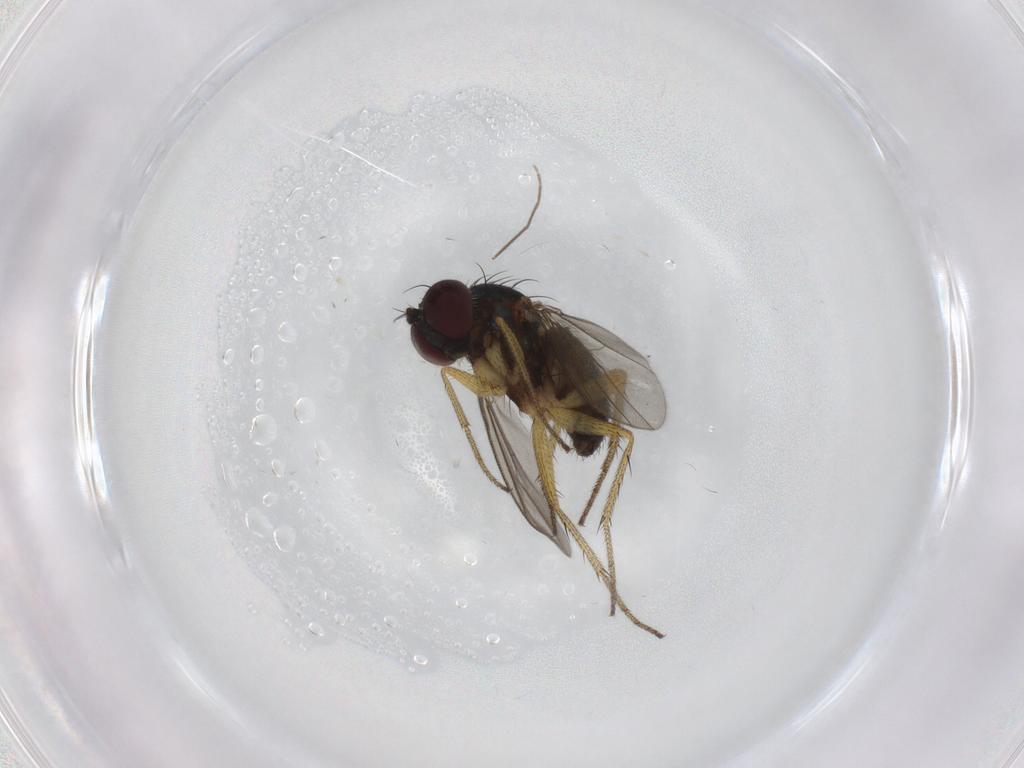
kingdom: Animalia
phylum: Arthropoda
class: Insecta
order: Diptera
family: Dolichopodidae
